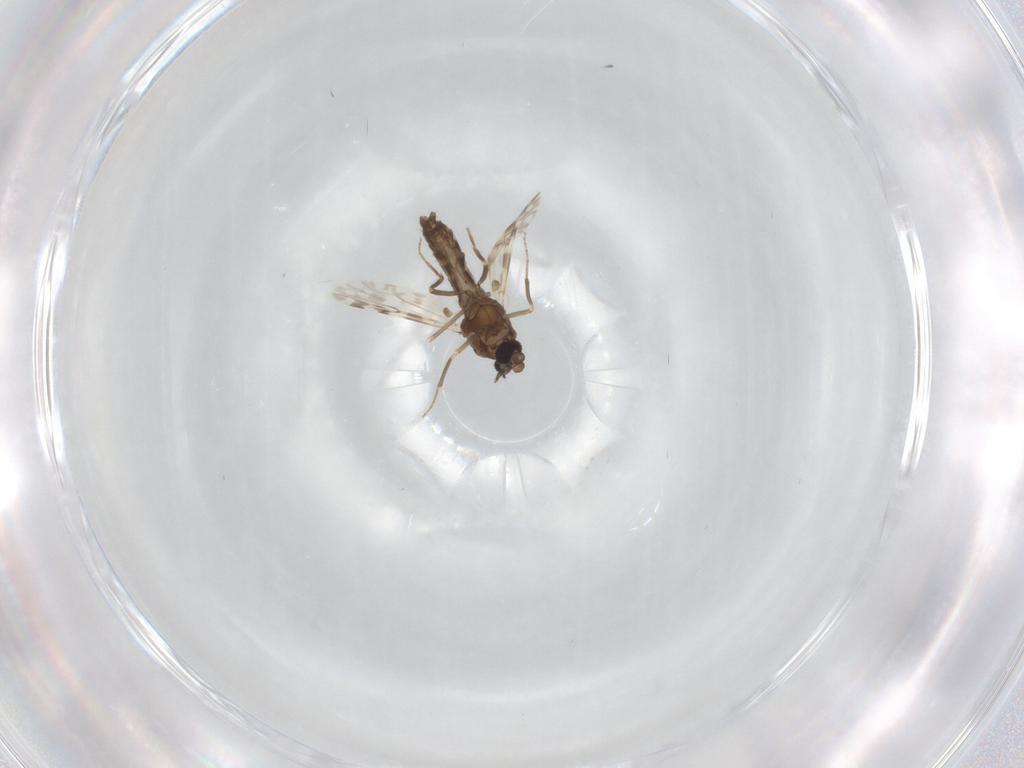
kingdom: Animalia
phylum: Arthropoda
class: Insecta
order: Diptera
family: Ceratopogonidae
